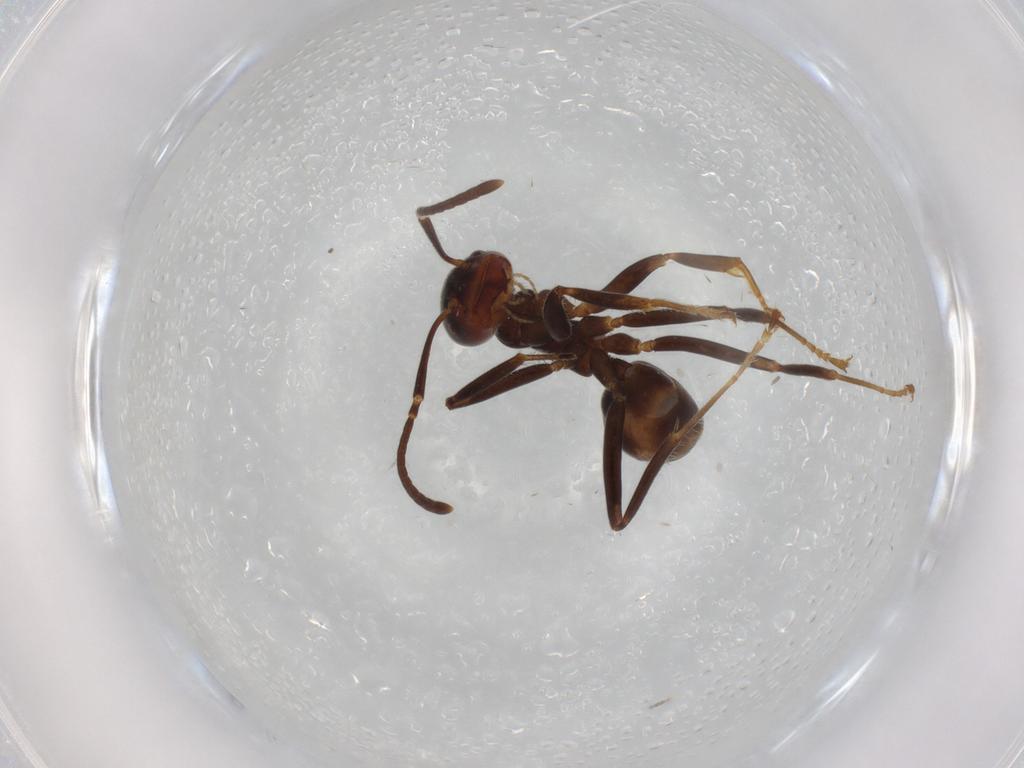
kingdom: Animalia
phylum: Arthropoda
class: Insecta
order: Hymenoptera
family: Formicidae
